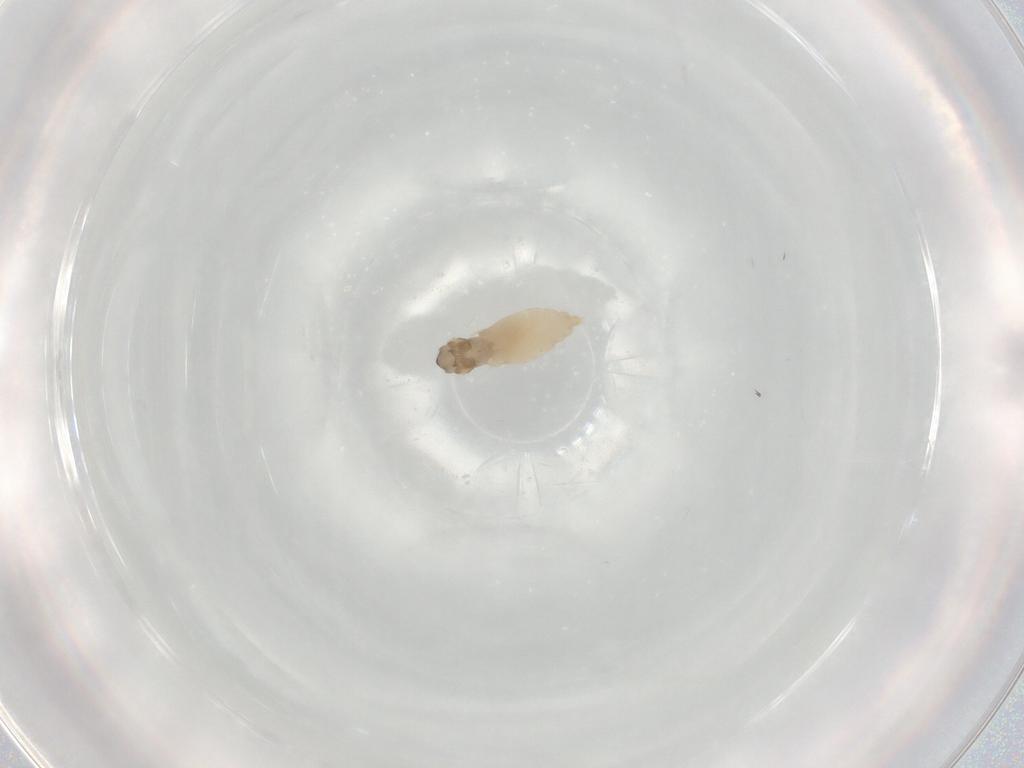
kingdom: Animalia
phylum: Arthropoda
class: Insecta
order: Diptera
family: Cecidomyiidae
